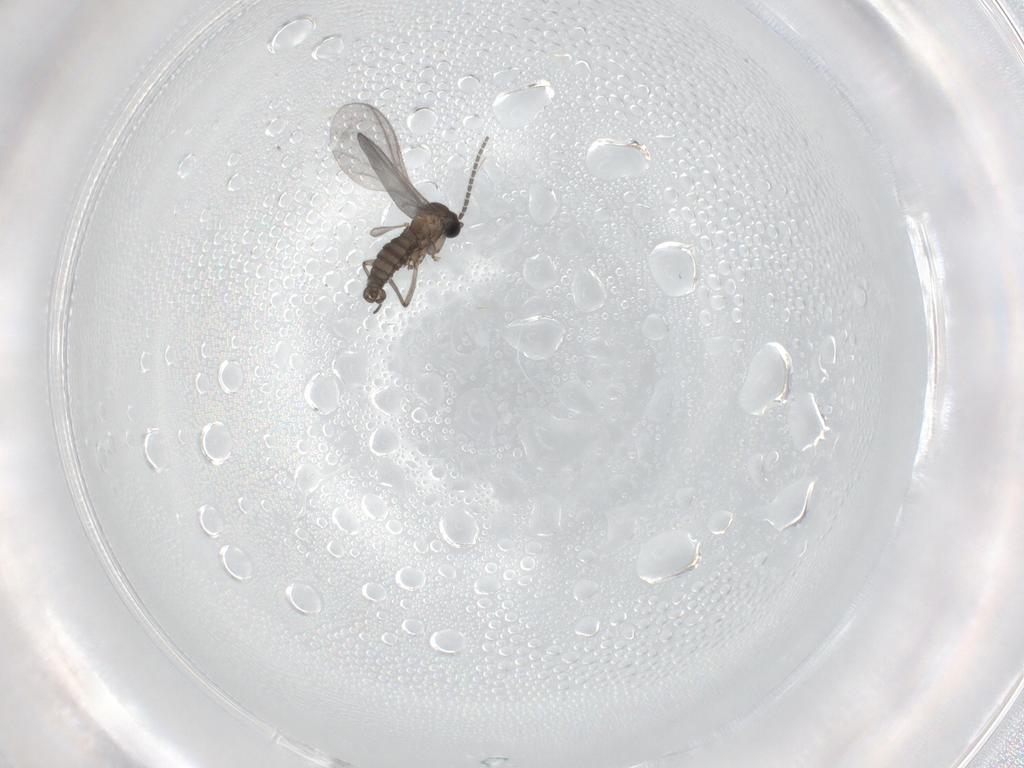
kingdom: Animalia
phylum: Arthropoda
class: Insecta
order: Diptera
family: Sciaridae
